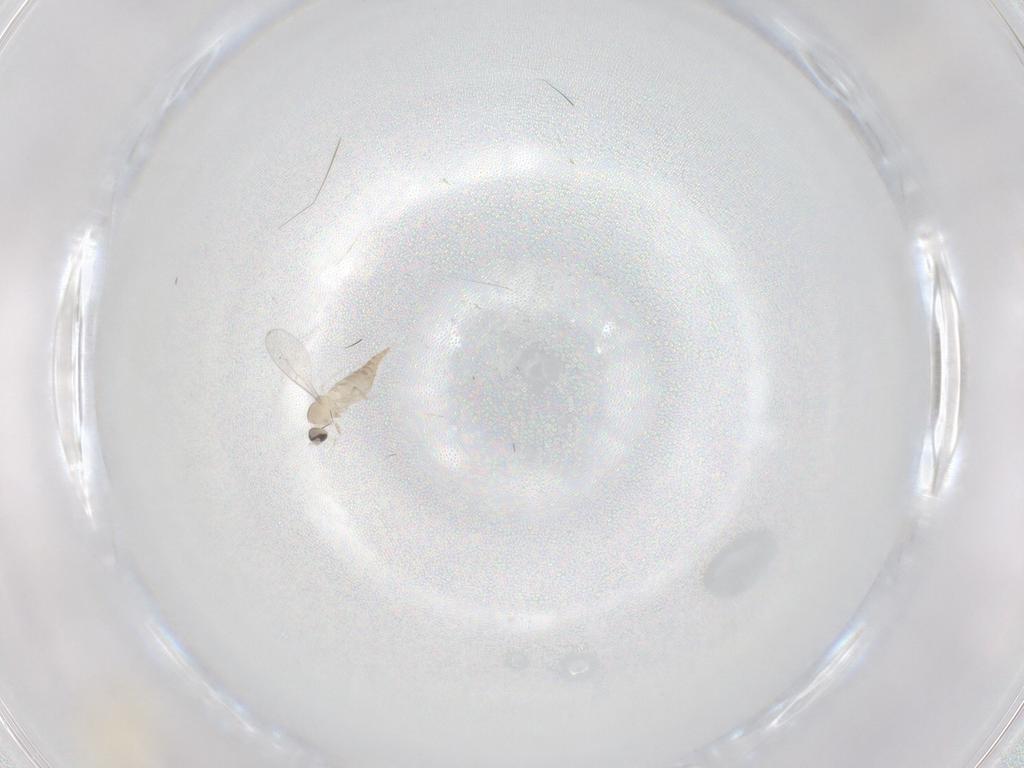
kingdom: Animalia
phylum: Arthropoda
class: Insecta
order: Diptera
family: Cecidomyiidae
